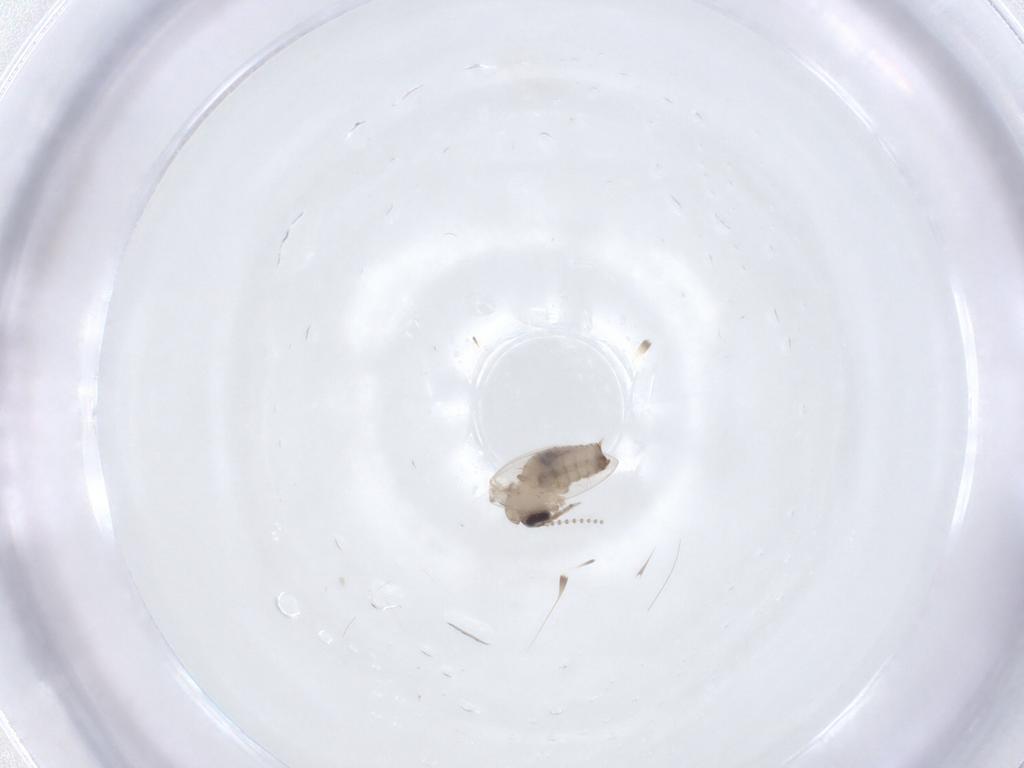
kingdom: Animalia
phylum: Arthropoda
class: Insecta
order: Diptera
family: Psychodidae
